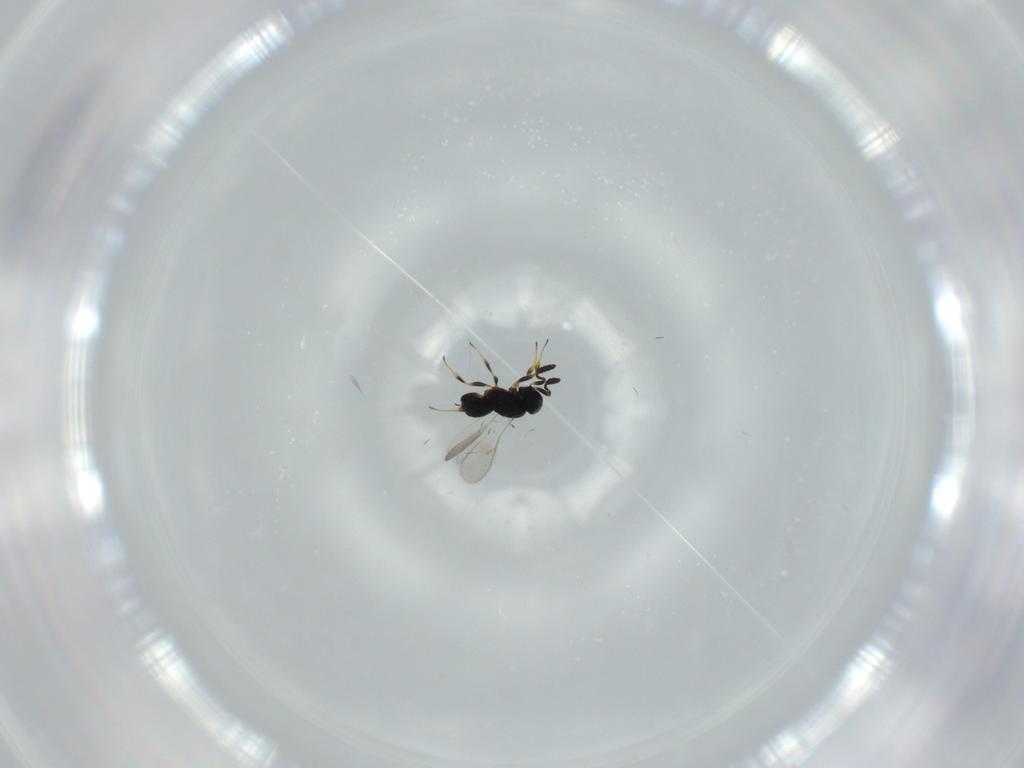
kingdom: Animalia
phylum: Arthropoda
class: Insecta
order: Hymenoptera
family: Scelionidae
